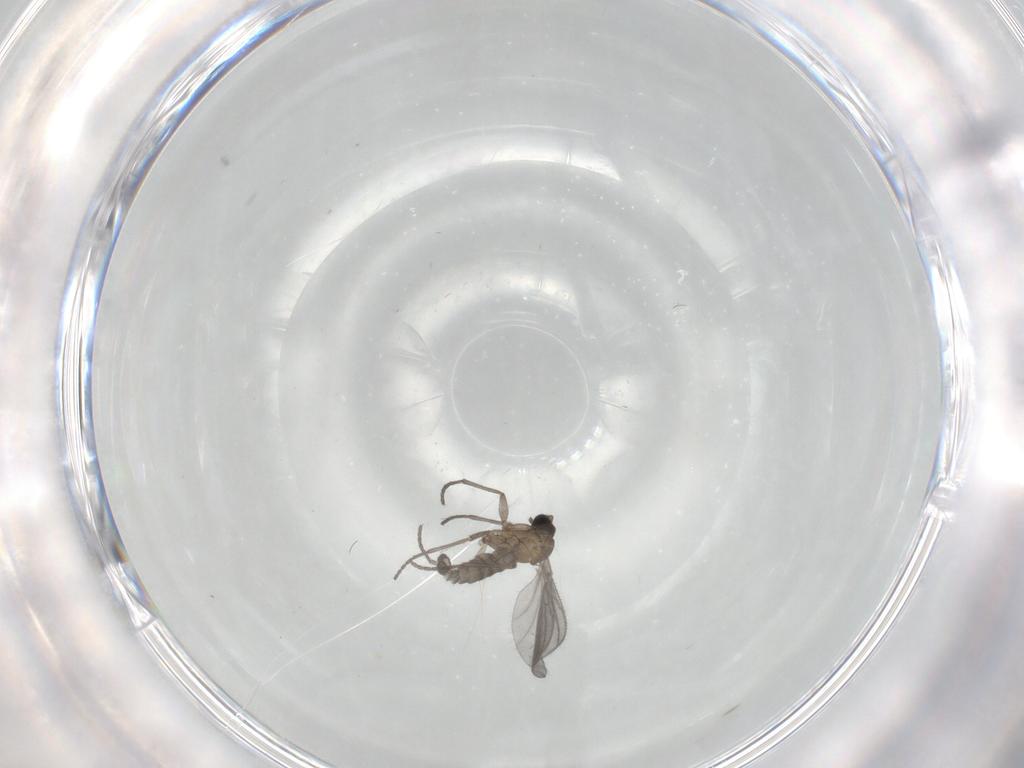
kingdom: Animalia
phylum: Arthropoda
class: Insecta
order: Diptera
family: Sciaridae
